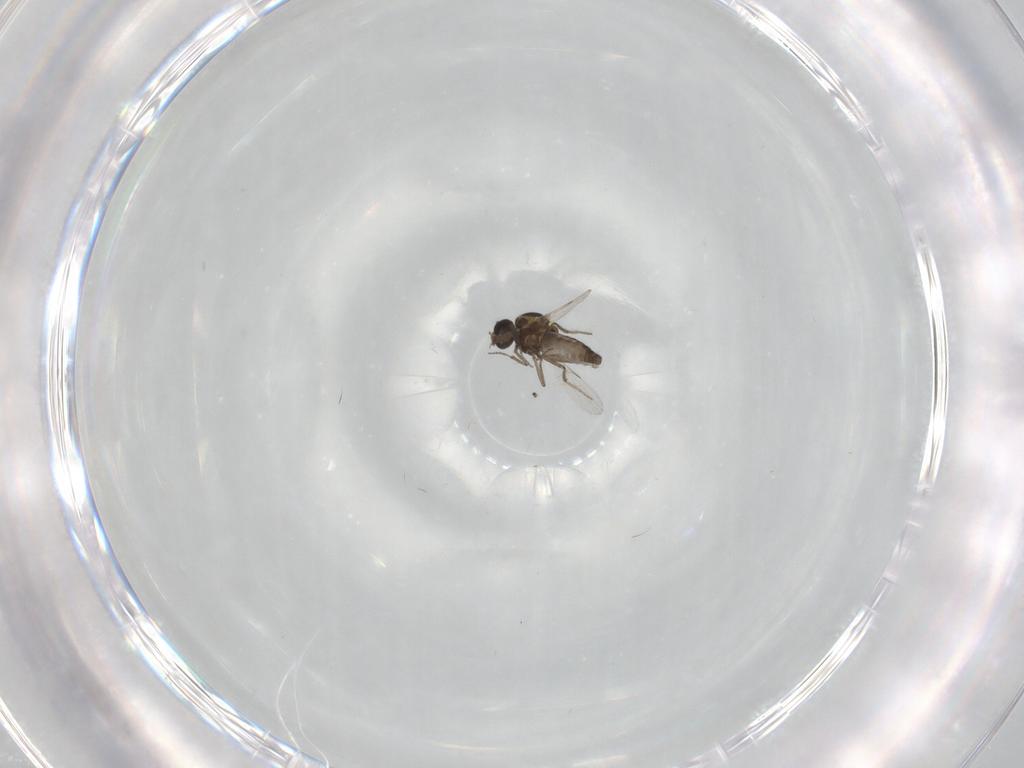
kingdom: Animalia
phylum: Arthropoda
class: Insecta
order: Diptera
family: Ceratopogonidae
